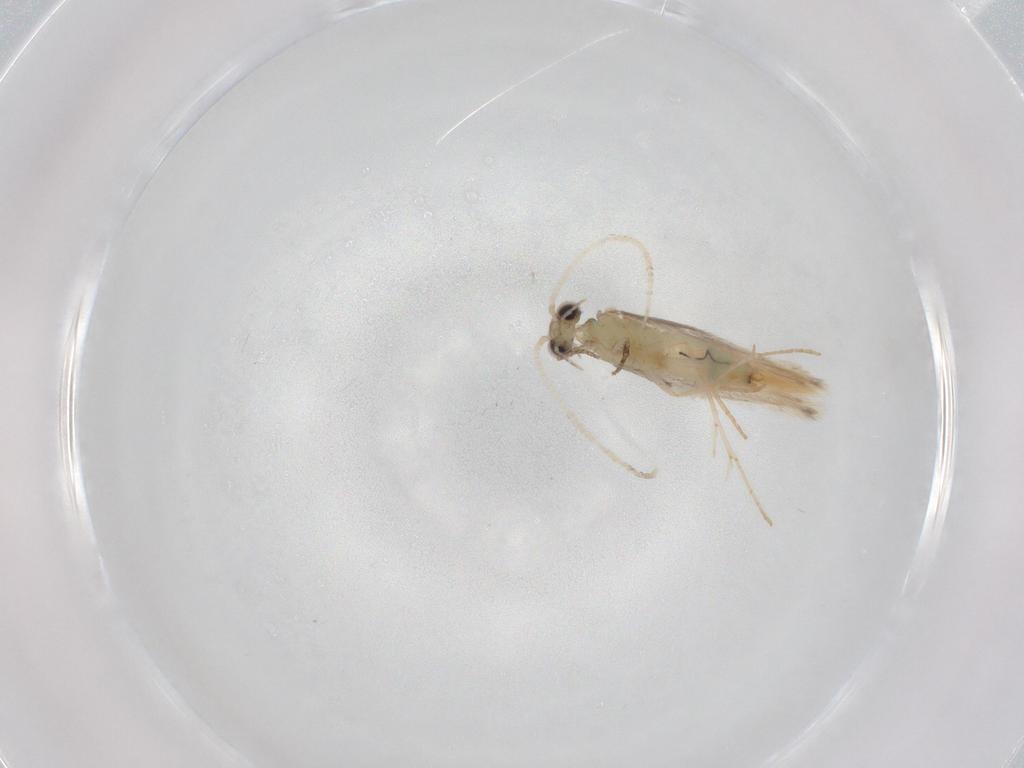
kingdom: Animalia
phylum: Arthropoda
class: Insecta
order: Trichoptera
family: Hydroptilidae
